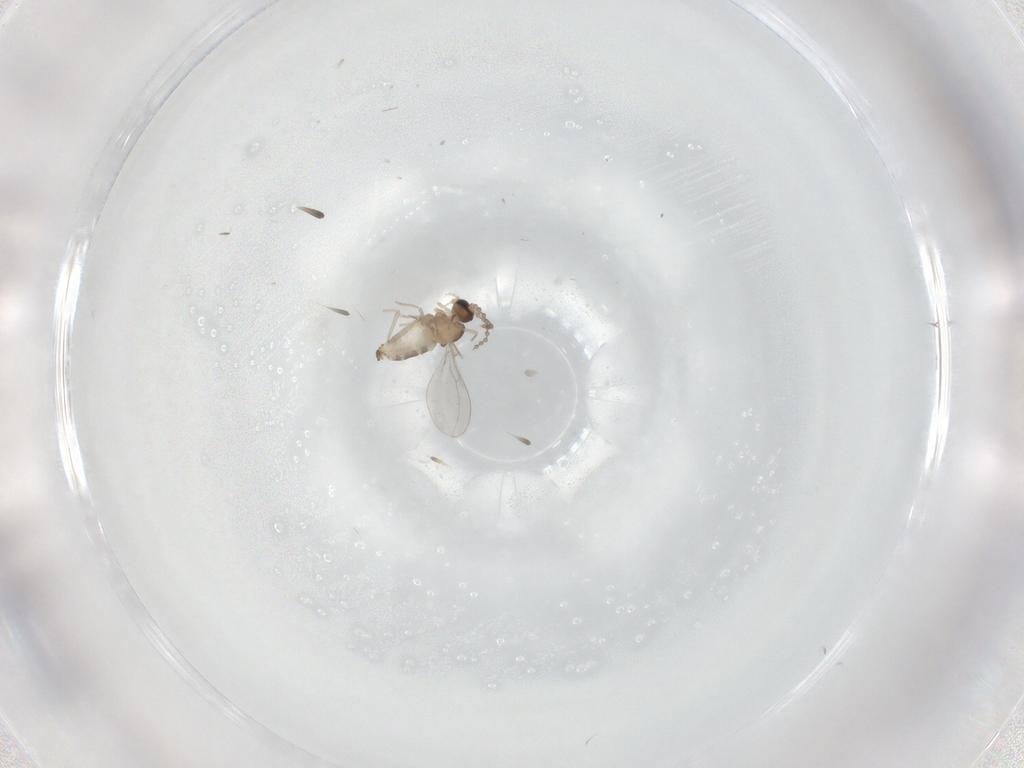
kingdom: Animalia
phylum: Arthropoda
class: Insecta
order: Diptera
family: Cecidomyiidae
